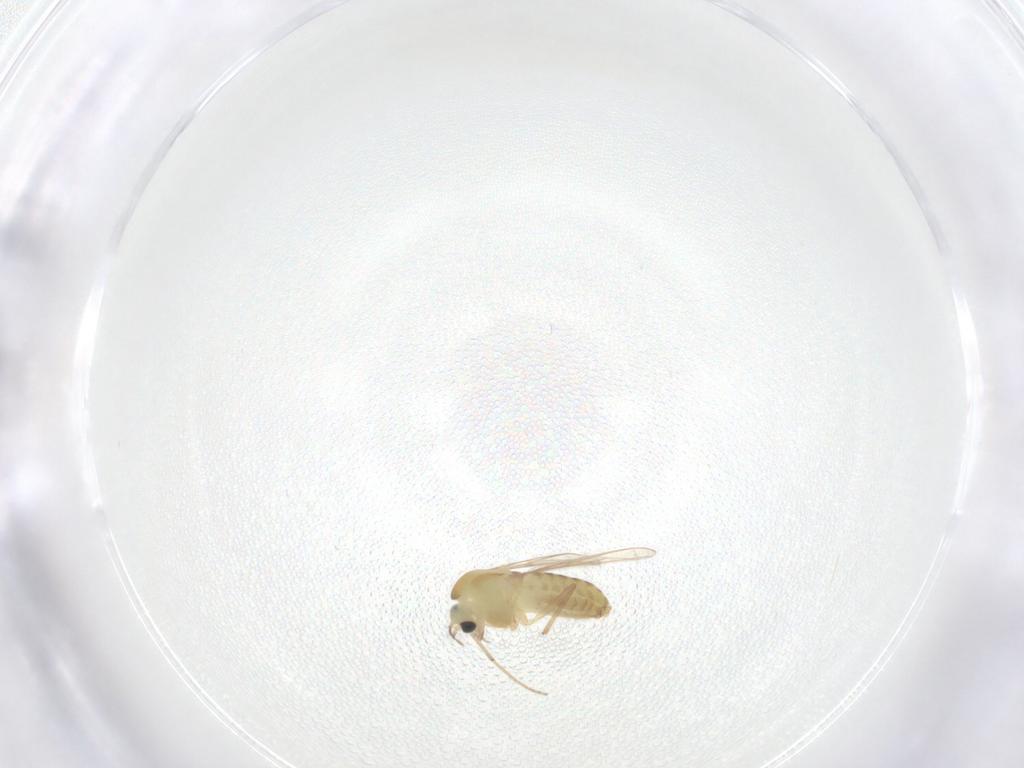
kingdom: Animalia
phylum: Arthropoda
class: Insecta
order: Diptera
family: Chironomidae
